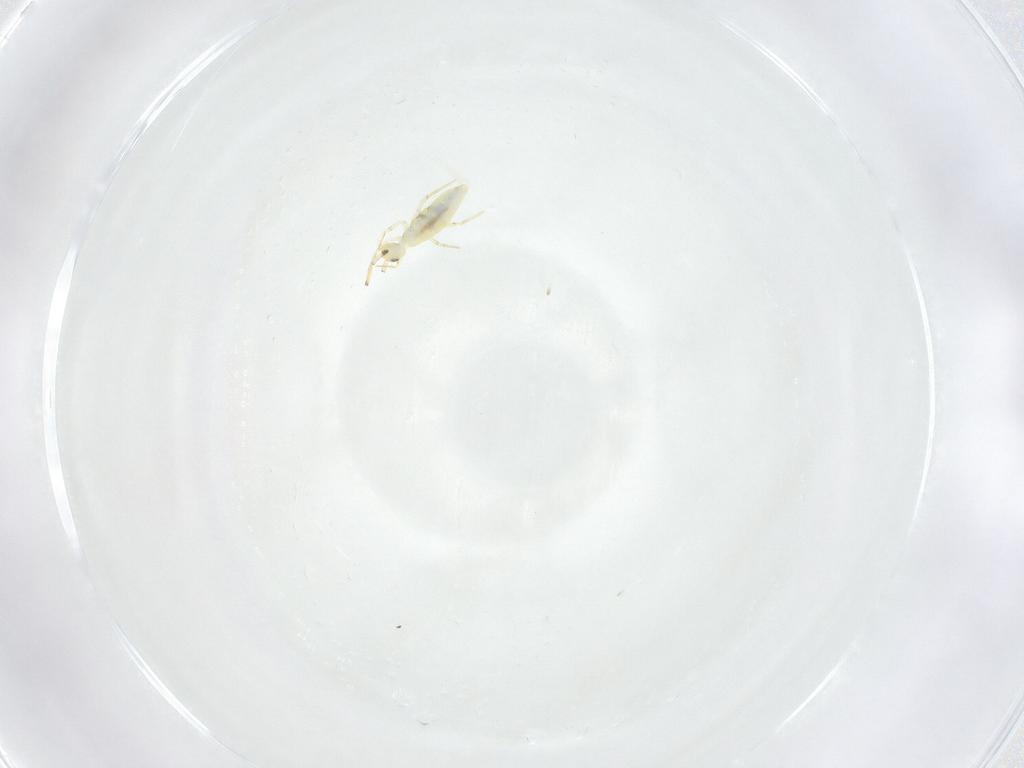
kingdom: Animalia
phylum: Arthropoda
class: Collembola
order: Entomobryomorpha
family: Paronellidae
